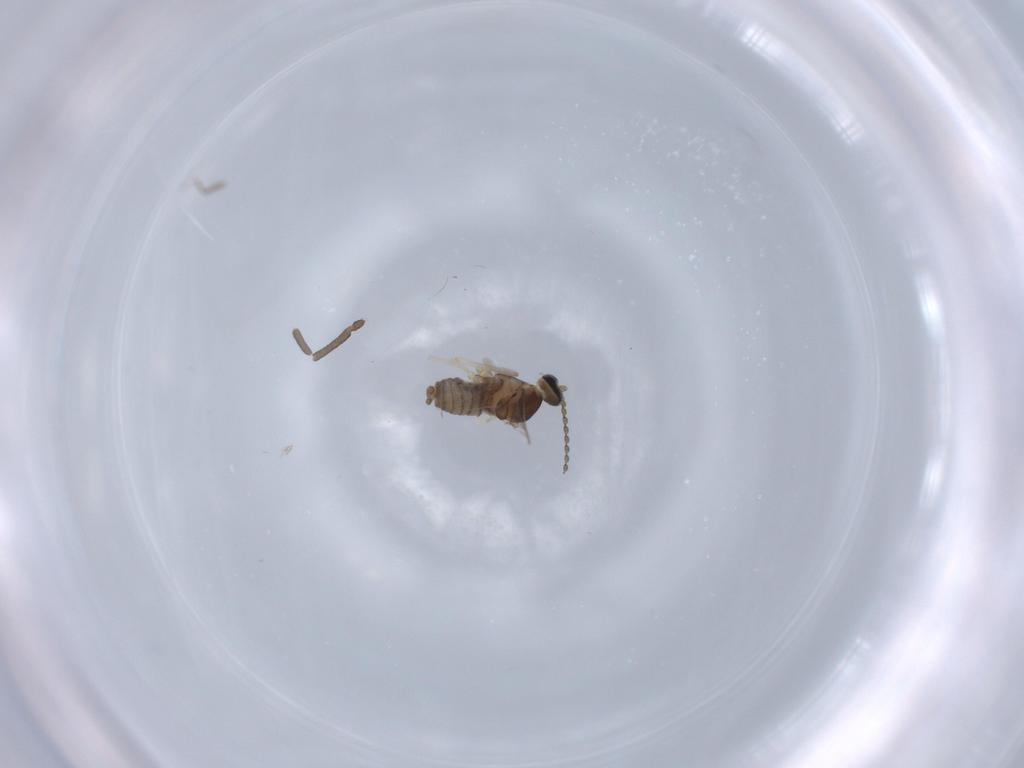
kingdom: Animalia
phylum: Arthropoda
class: Insecta
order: Diptera
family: Cecidomyiidae
